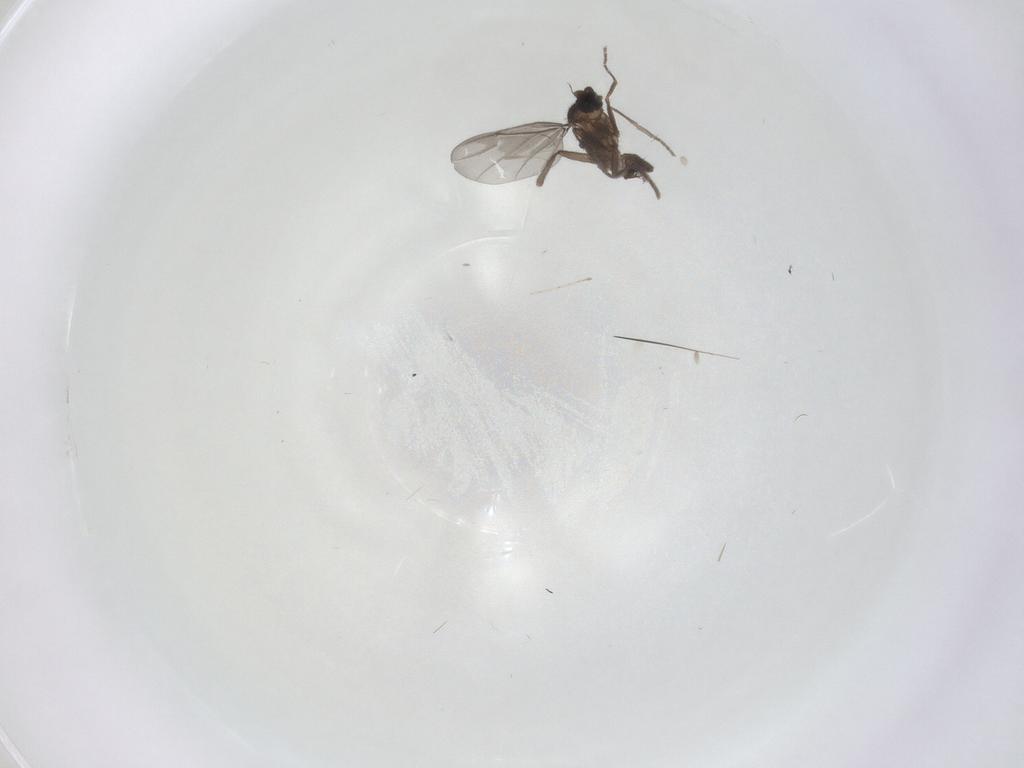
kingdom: Animalia
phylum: Arthropoda
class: Insecta
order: Diptera
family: Phoridae
